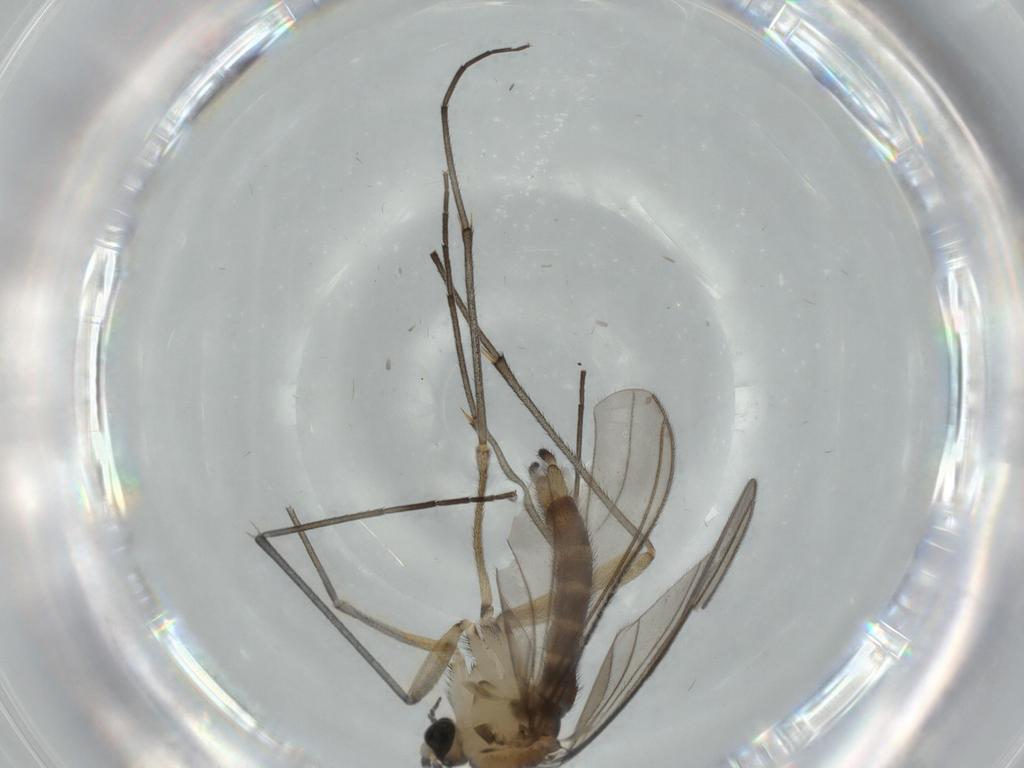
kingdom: Animalia
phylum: Arthropoda
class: Insecta
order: Diptera
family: Sciaridae
